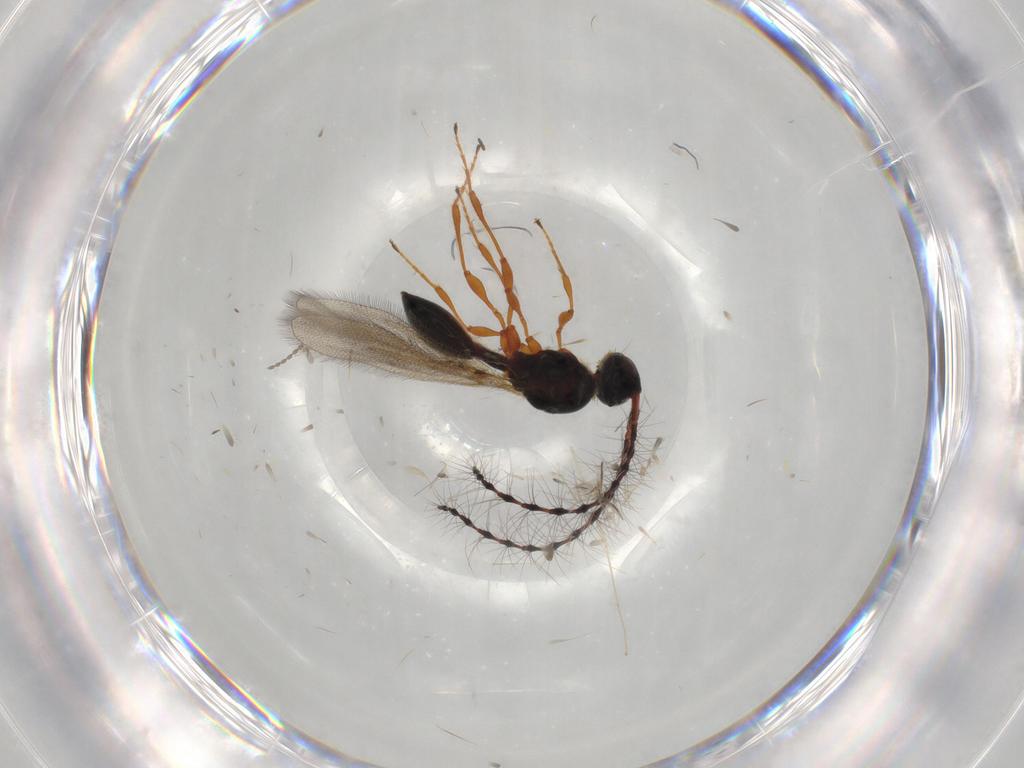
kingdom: Animalia
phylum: Arthropoda
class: Insecta
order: Hymenoptera
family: Diapriidae
